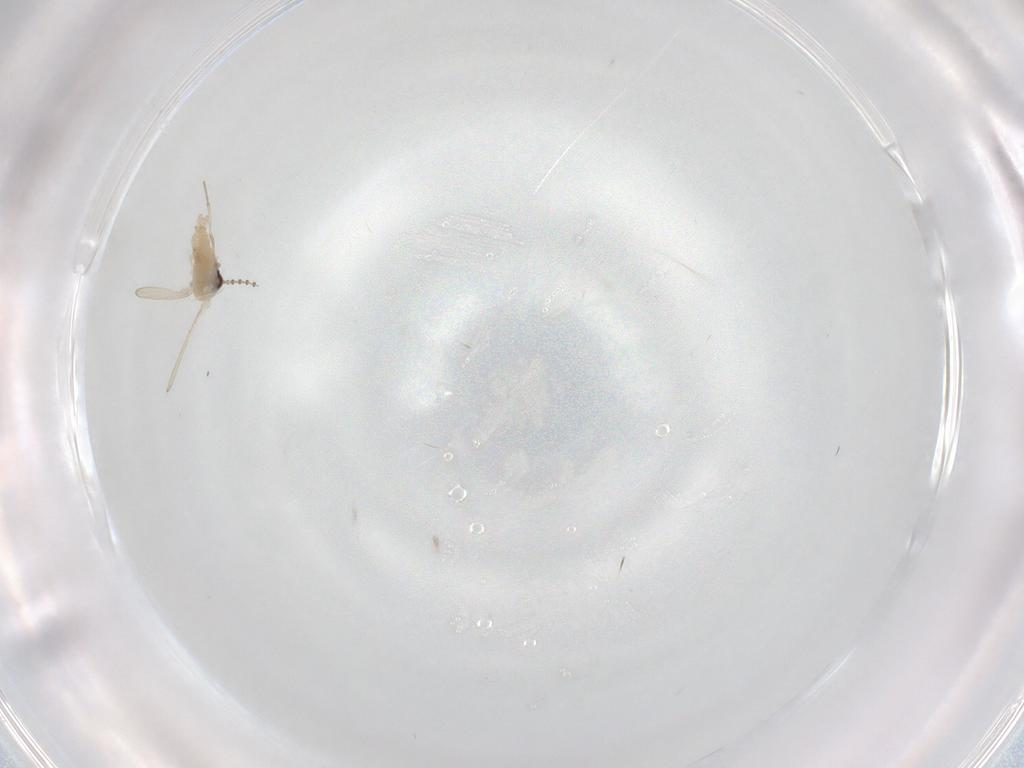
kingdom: Animalia
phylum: Arthropoda
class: Insecta
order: Diptera
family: Psychodidae
